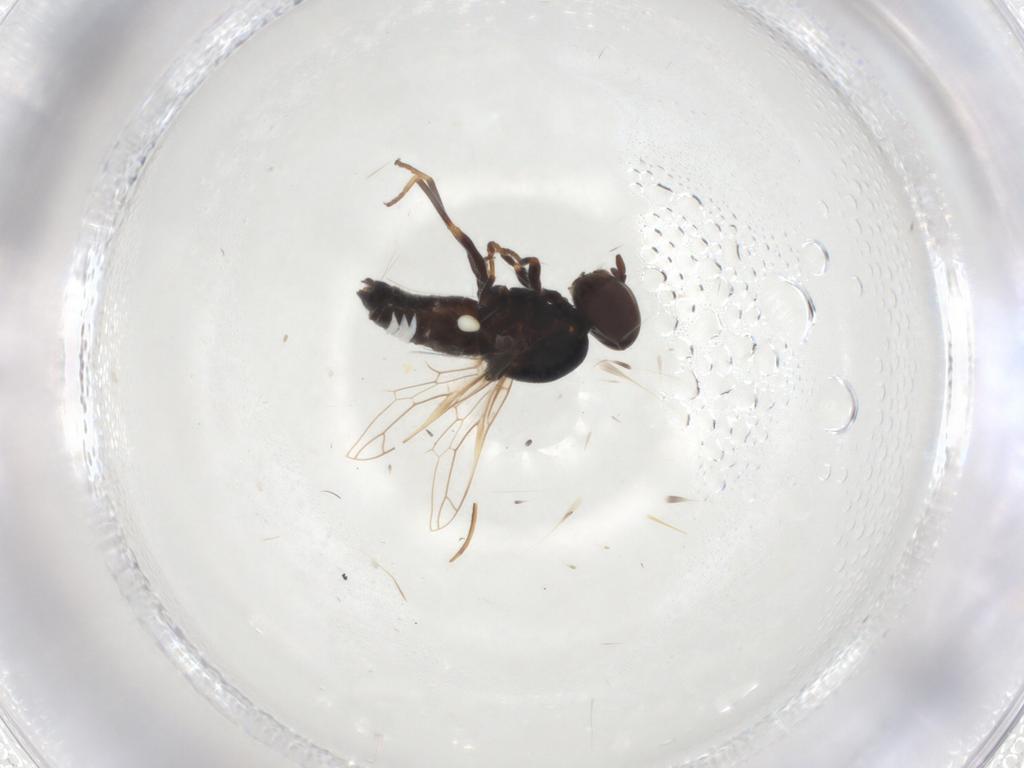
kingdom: Animalia
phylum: Arthropoda
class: Insecta
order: Diptera
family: Scenopinidae
